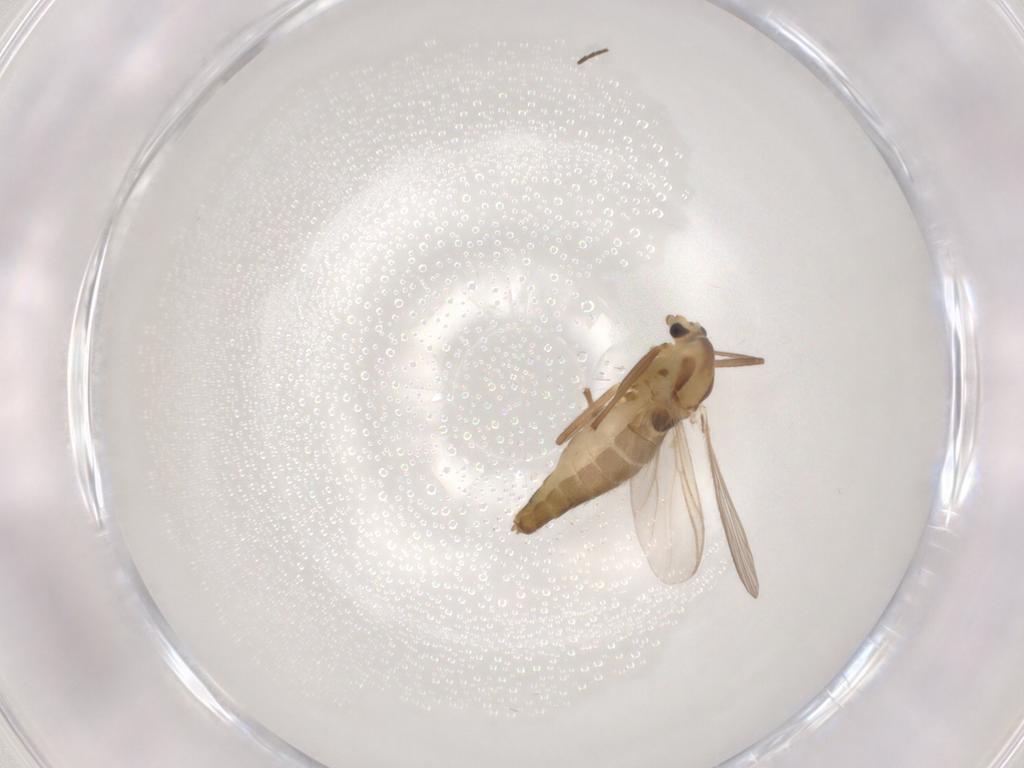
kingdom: Animalia
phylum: Arthropoda
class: Insecta
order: Diptera
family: Chironomidae
